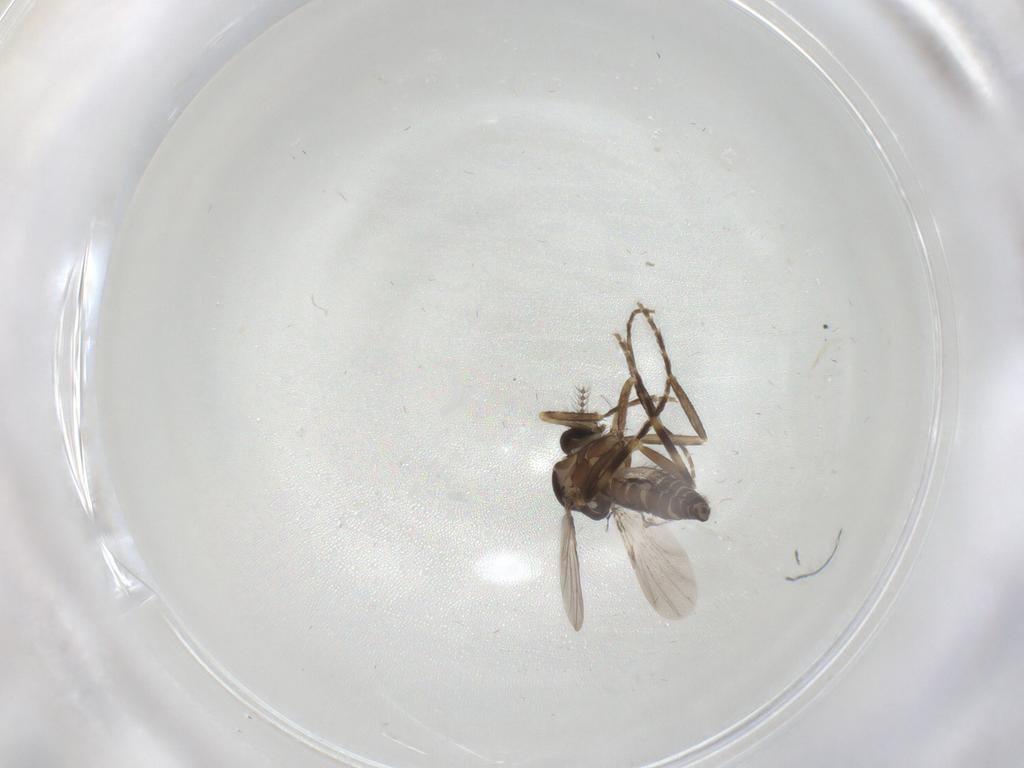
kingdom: Animalia
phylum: Arthropoda
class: Insecta
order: Diptera
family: Ceratopogonidae
